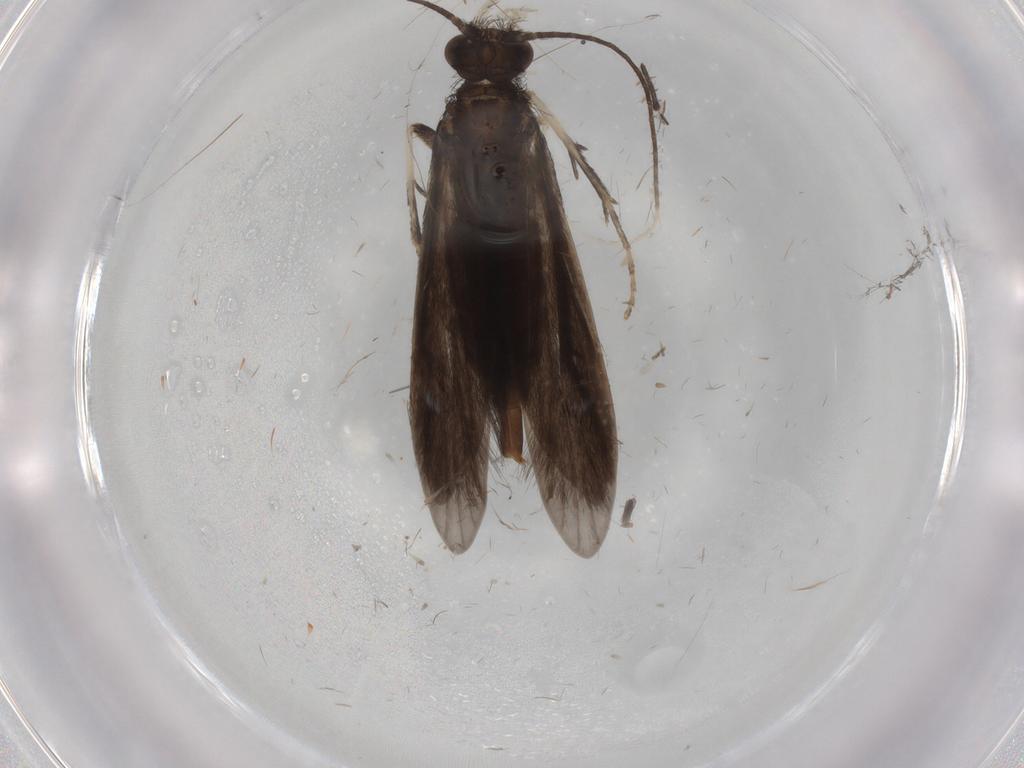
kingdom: Animalia
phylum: Arthropoda
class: Insecta
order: Trichoptera
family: Xiphocentronidae
